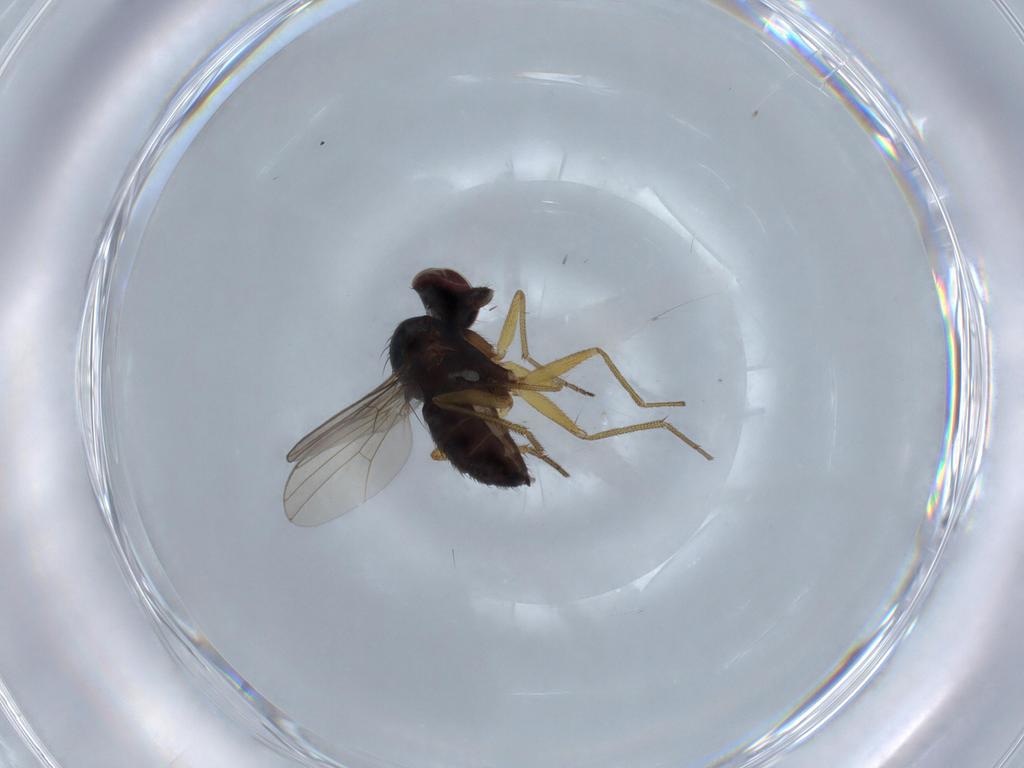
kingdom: Animalia
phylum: Arthropoda
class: Insecta
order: Diptera
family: Dolichopodidae
